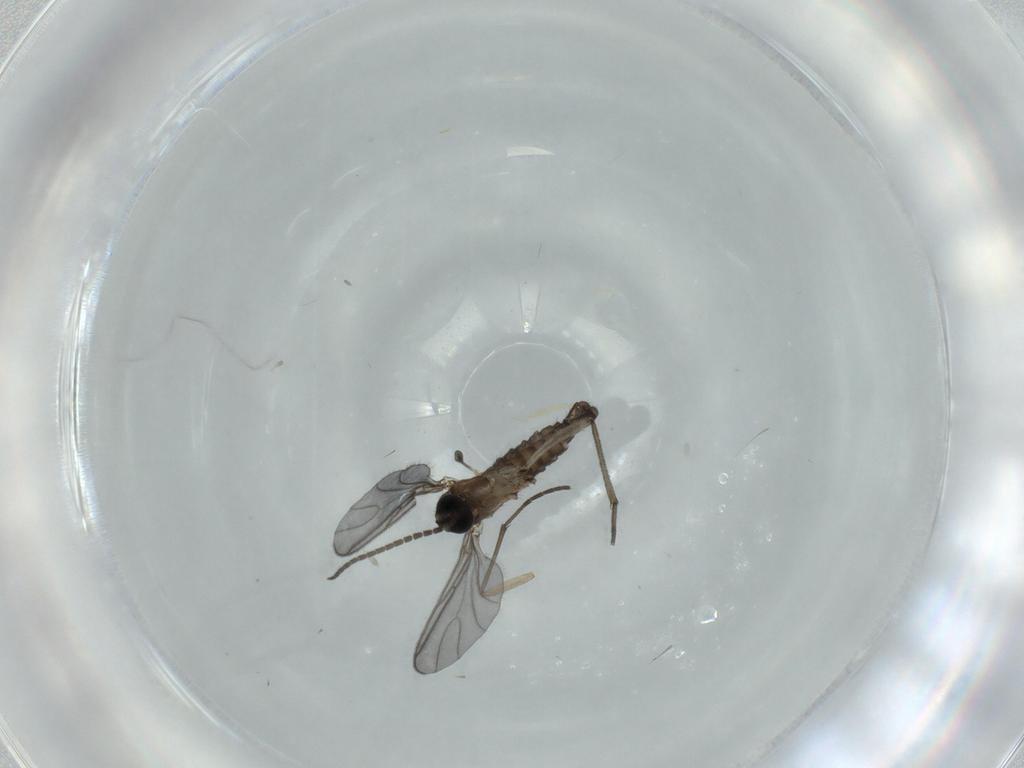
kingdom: Animalia
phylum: Arthropoda
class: Insecta
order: Diptera
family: Sciaridae
